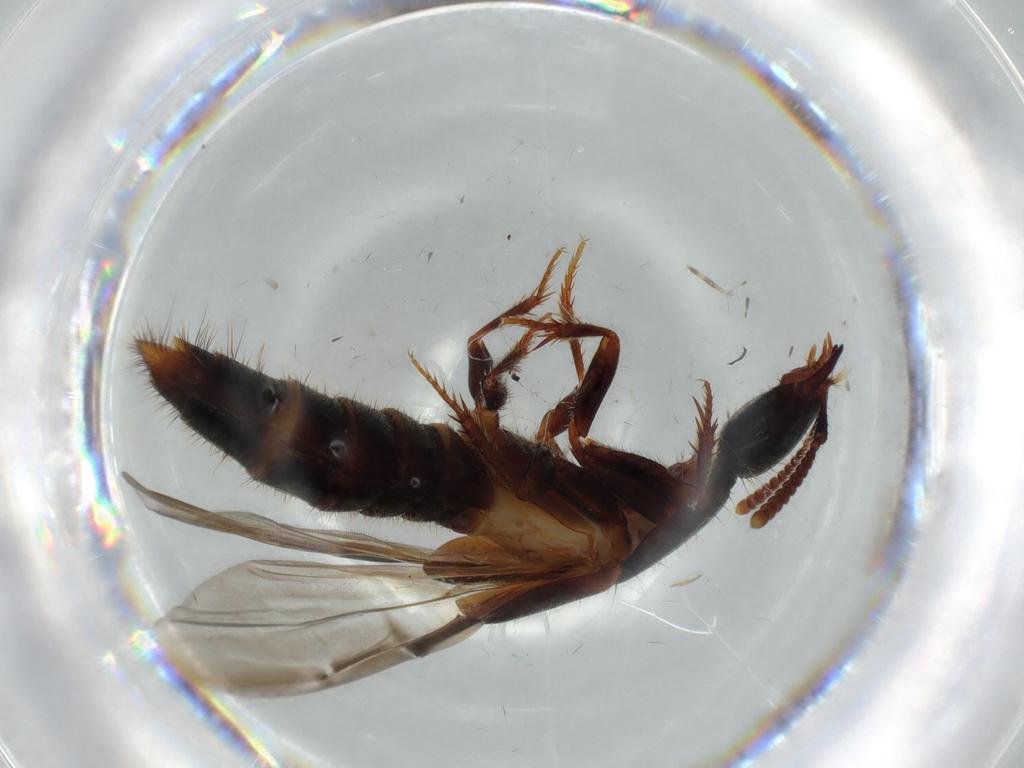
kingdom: Animalia
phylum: Arthropoda
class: Insecta
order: Coleoptera
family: Staphylinidae
